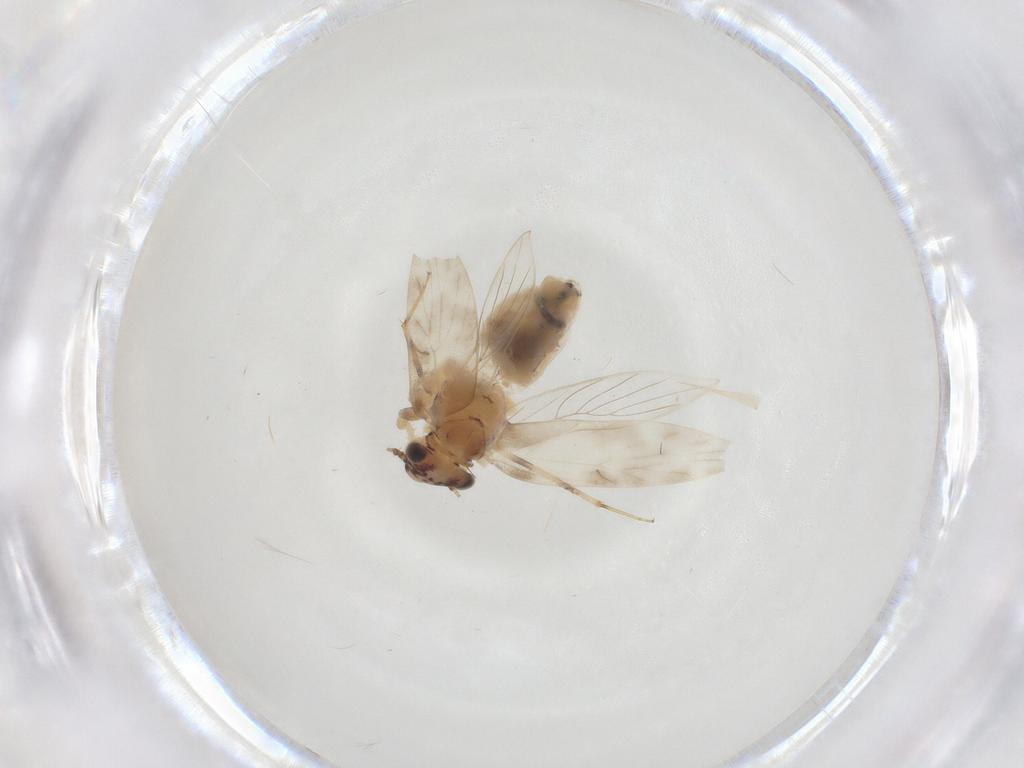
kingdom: Animalia
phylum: Arthropoda
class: Insecta
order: Psocodea
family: Lepidopsocidae
